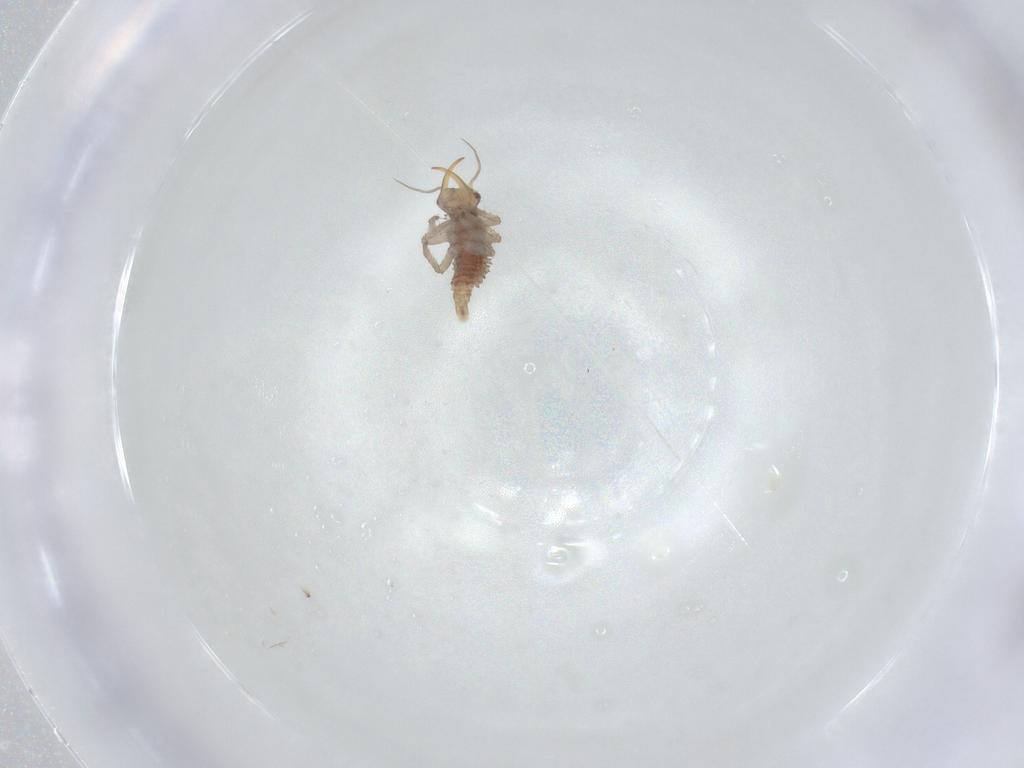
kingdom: Animalia
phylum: Arthropoda
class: Insecta
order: Neuroptera
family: Chrysopidae
